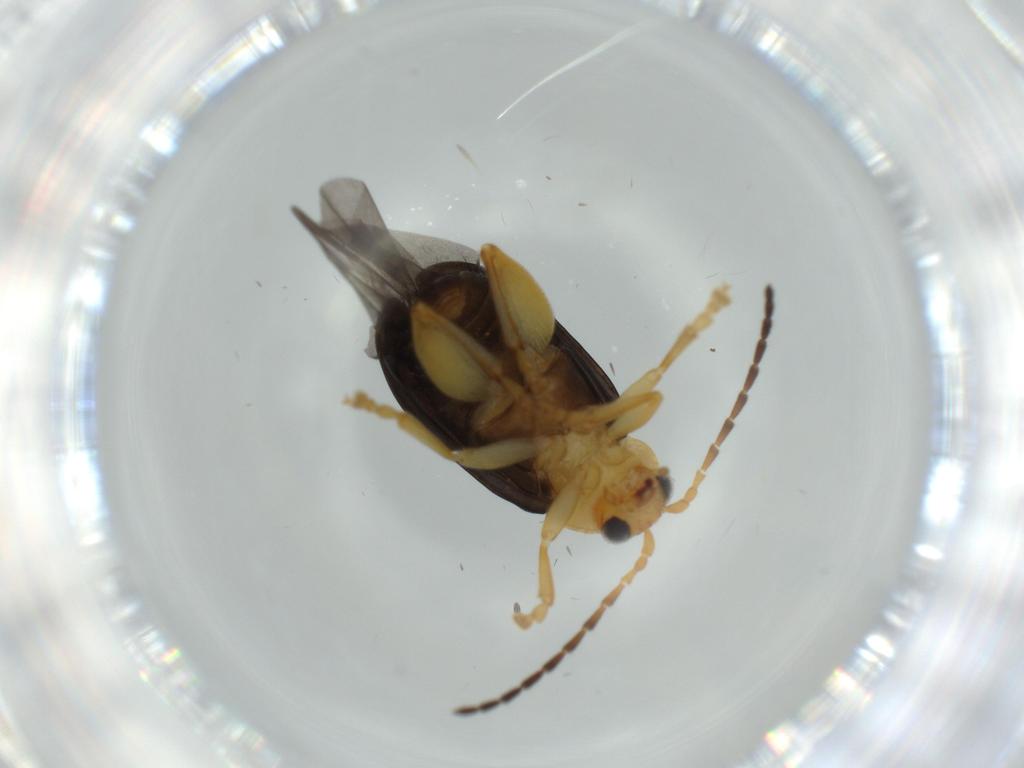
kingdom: Animalia
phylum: Arthropoda
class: Insecta
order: Coleoptera
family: Chrysomelidae
